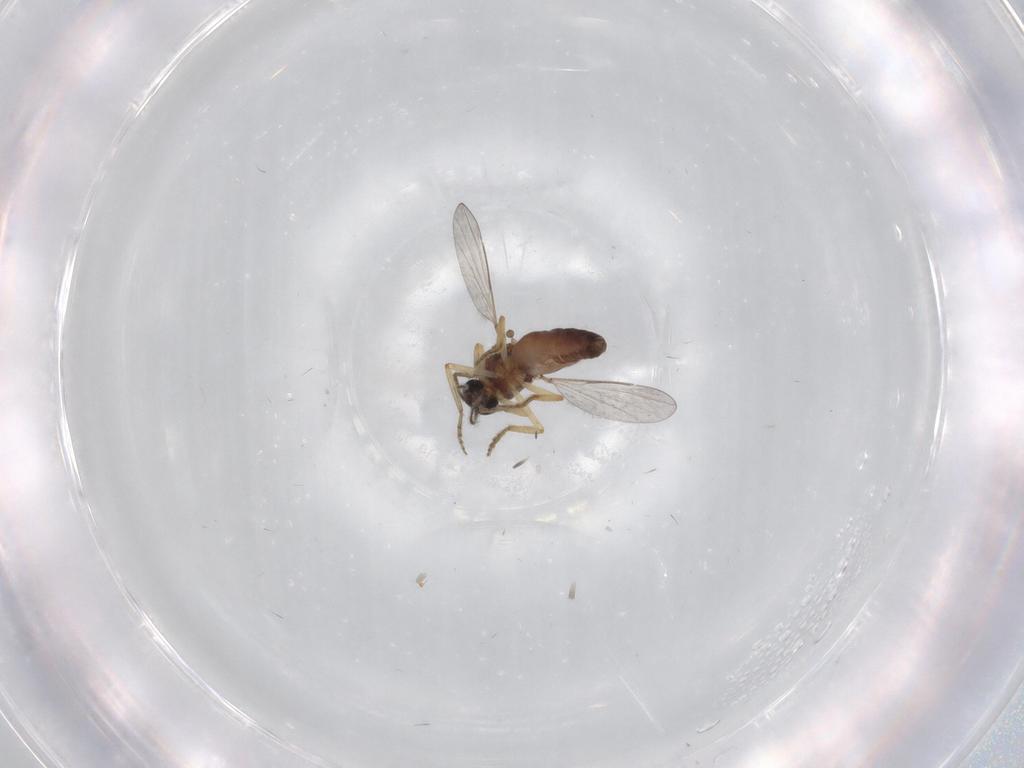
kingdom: Animalia
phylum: Arthropoda
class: Insecta
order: Diptera
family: Ceratopogonidae
